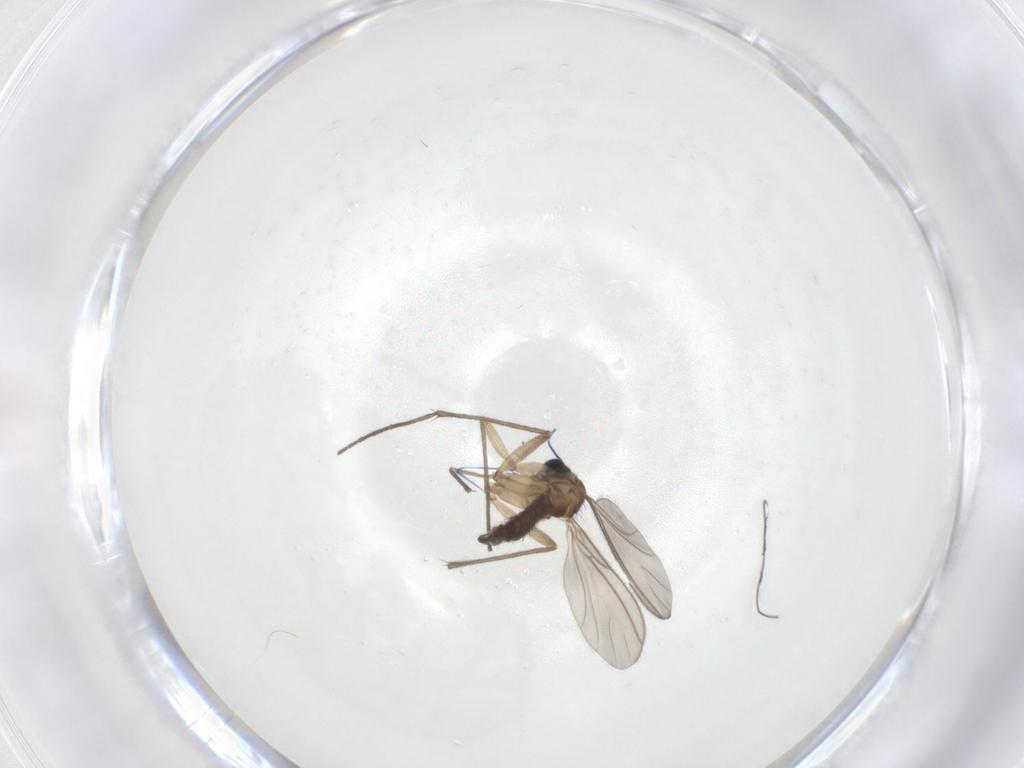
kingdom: Animalia
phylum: Arthropoda
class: Insecta
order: Diptera
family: Sciaridae
